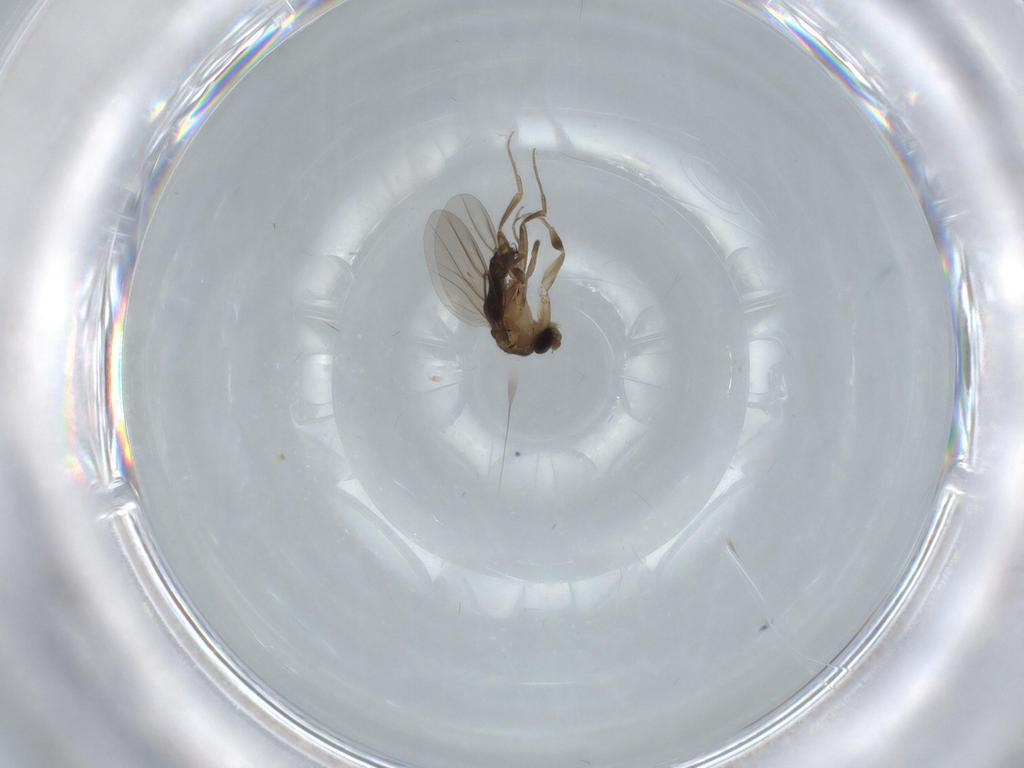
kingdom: Animalia
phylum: Arthropoda
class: Insecta
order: Diptera
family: Phoridae
